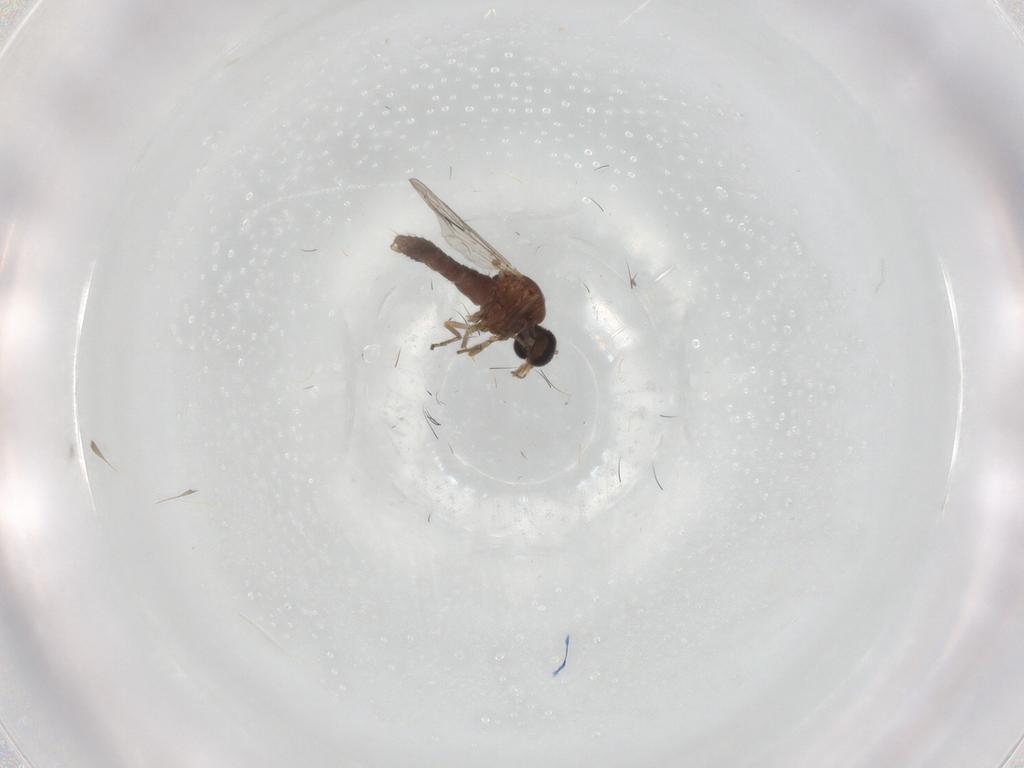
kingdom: Animalia
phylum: Arthropoda
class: Insecta
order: Diptera
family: Ceratopogonidae
